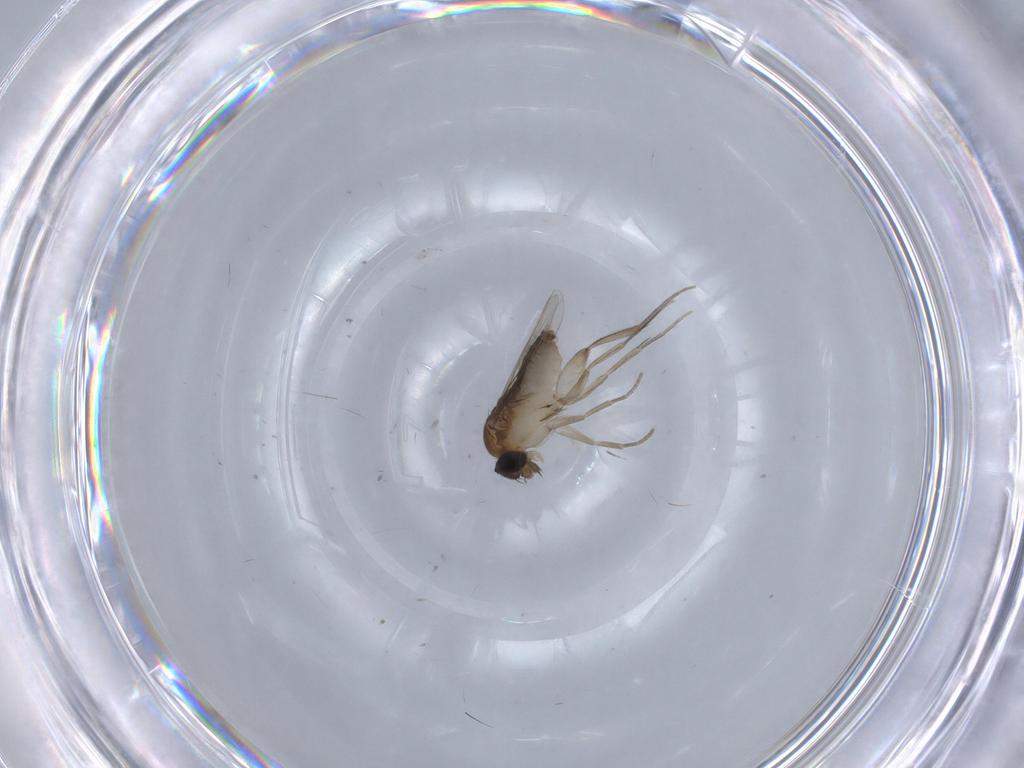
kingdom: Animalia
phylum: Arthropoda
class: Insecta
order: Diptera
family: Phoridae
